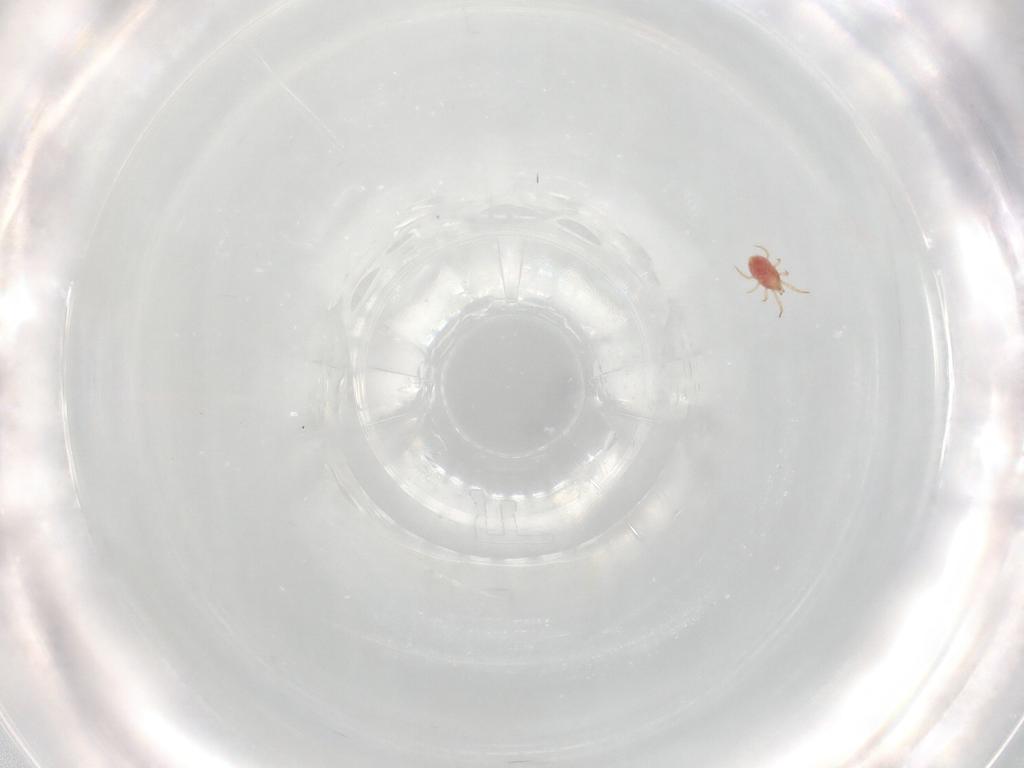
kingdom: Animalia
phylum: Arthropoda
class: Arachnida
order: Mesostigmata
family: Phytoseiidae
